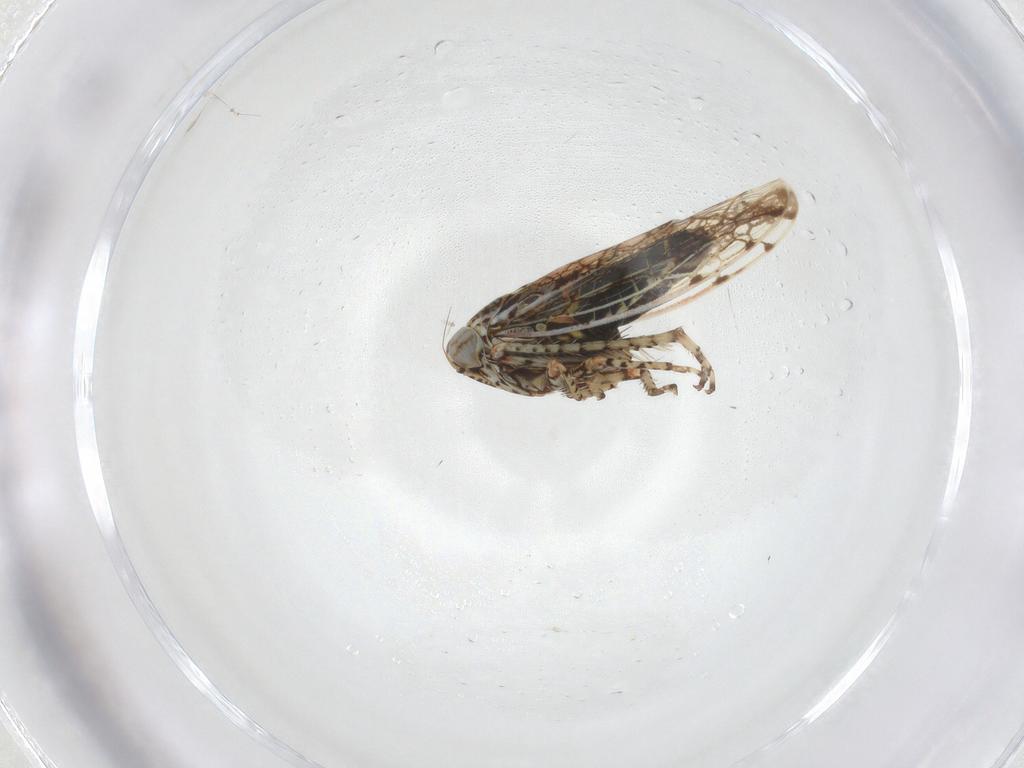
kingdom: Animalia
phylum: Arthropoda
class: Insecta
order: Hemiptera
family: Cicadellidae
